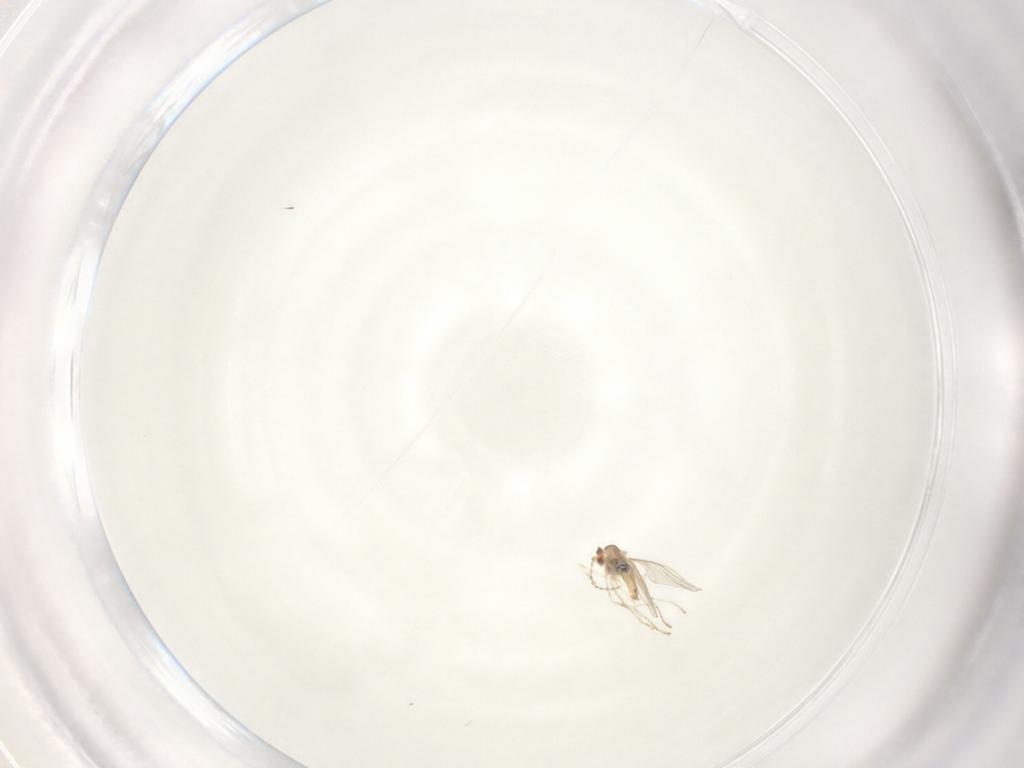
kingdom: Animalia
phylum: Arthropoda
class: Insecta
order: Diptera
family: Cecidomyiidae
